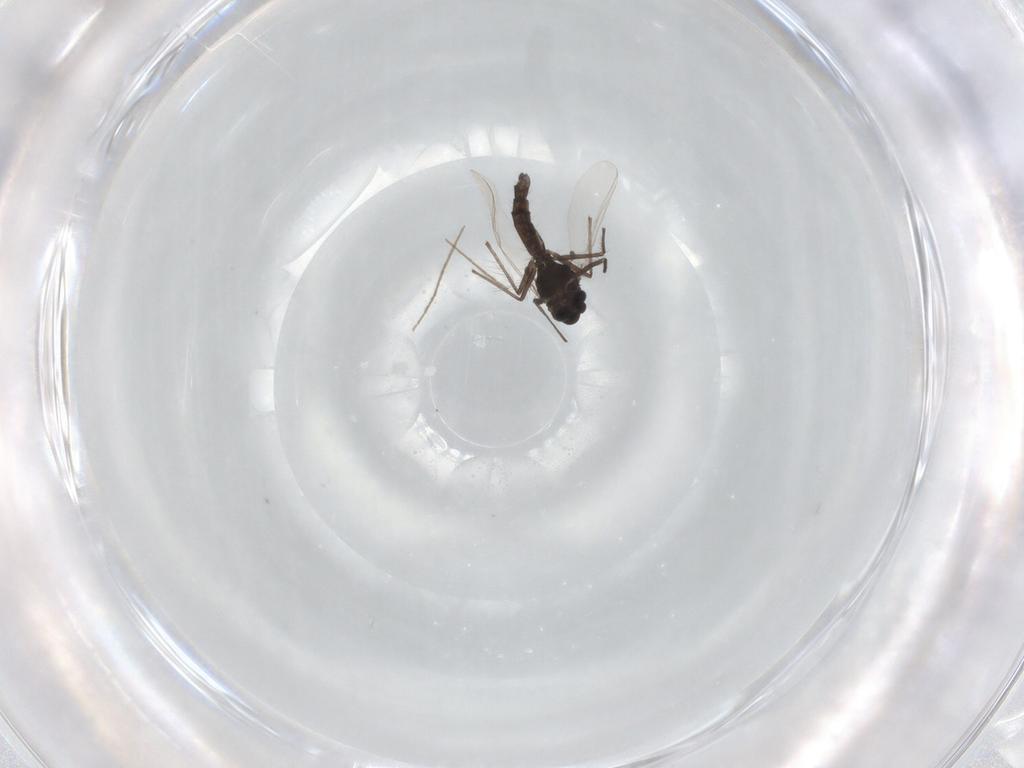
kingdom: Animalia
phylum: Arthropoda
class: Insecta
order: Diptera
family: Chironomidae
